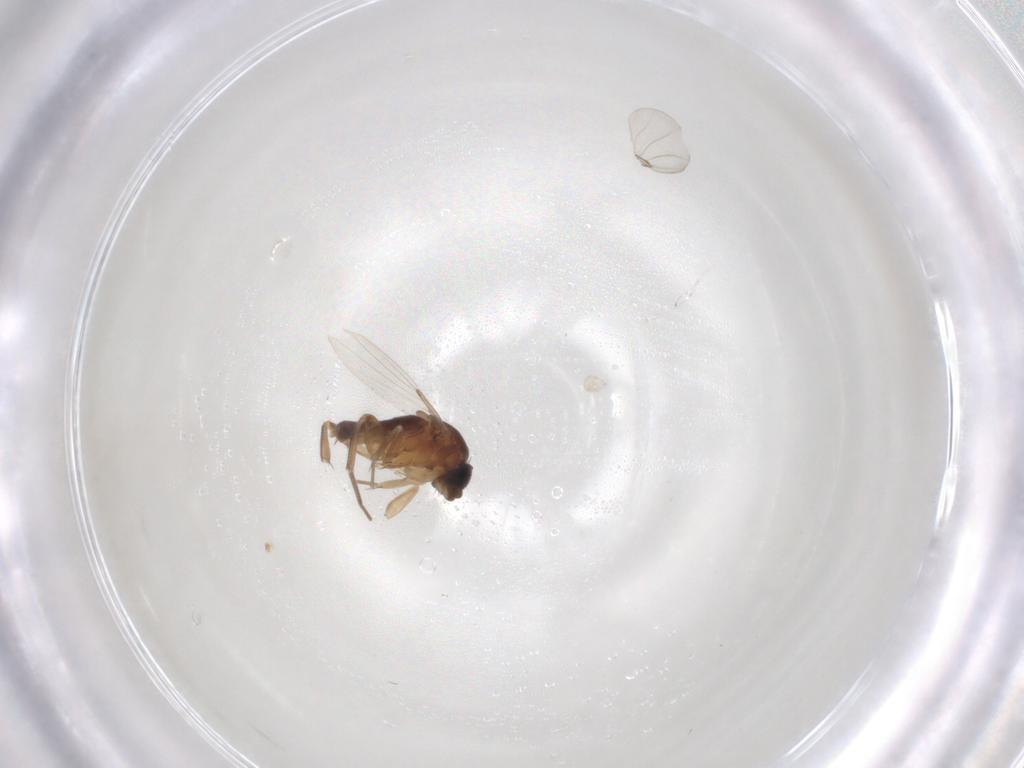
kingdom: Animalia
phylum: Arthropoda
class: Insecta
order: Diptera
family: Phoridae
